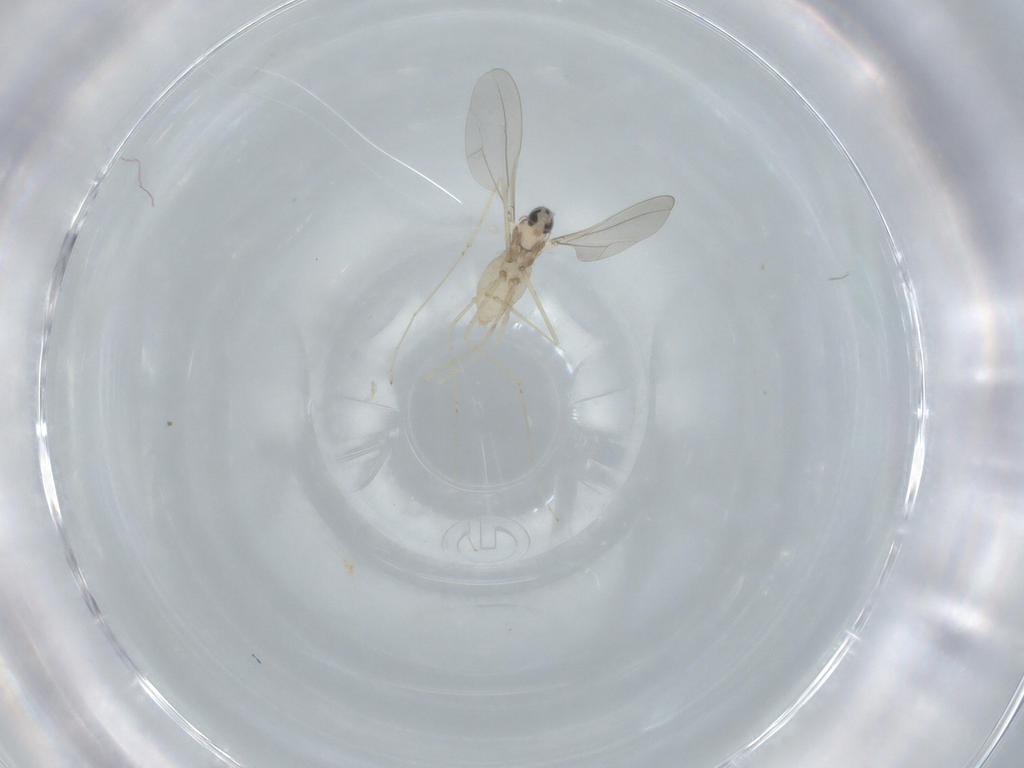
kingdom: Animalia
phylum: Arthropoda
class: Insecta
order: Diptera
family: Cecidomyiidae
